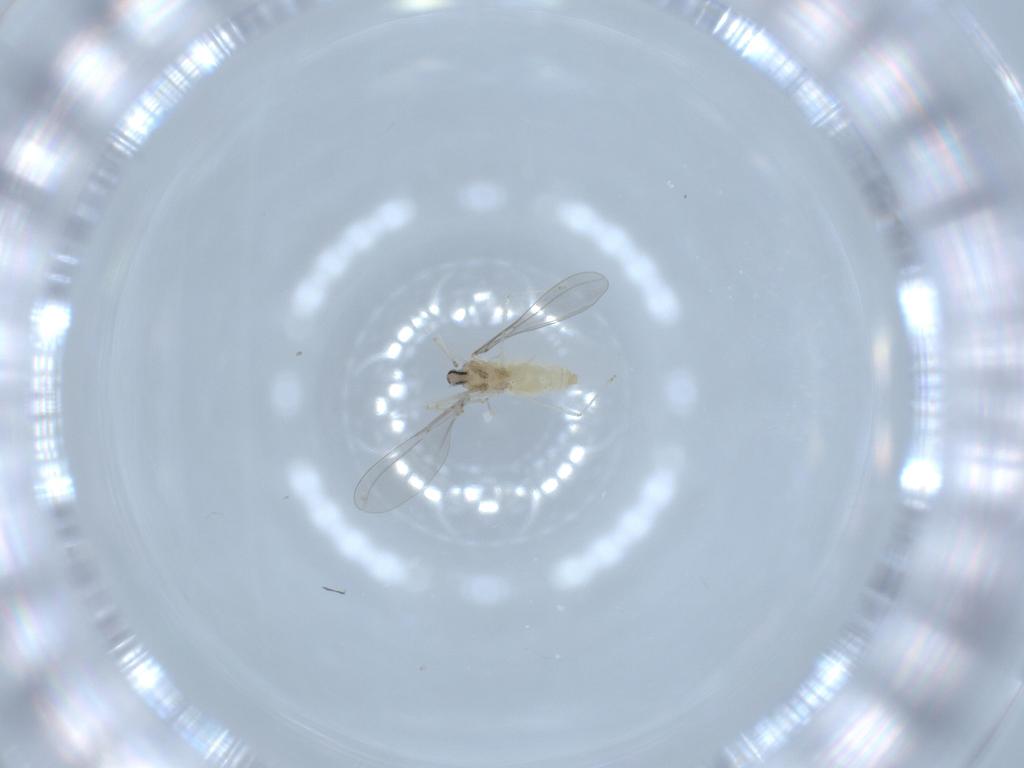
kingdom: Animalia
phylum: Arthropoda
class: Insecta
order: Diptera
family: Cecidomyiidae
